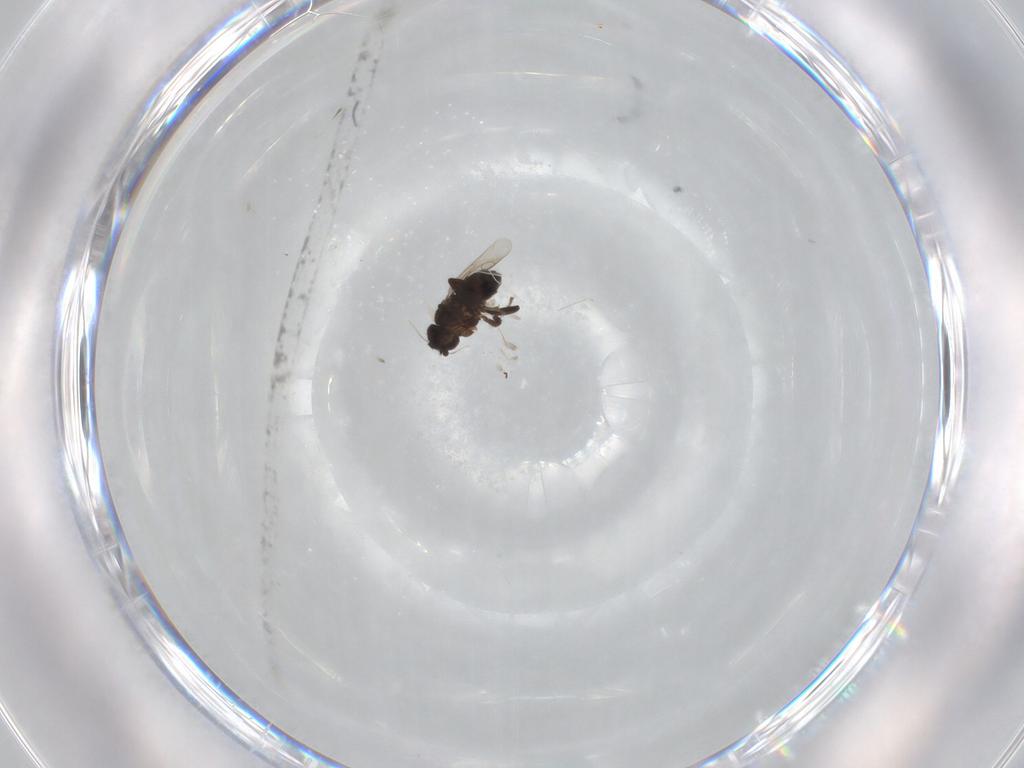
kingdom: Animalia
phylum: Arthropoda
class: Insecta
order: Diptera
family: Sphaeroceridae
